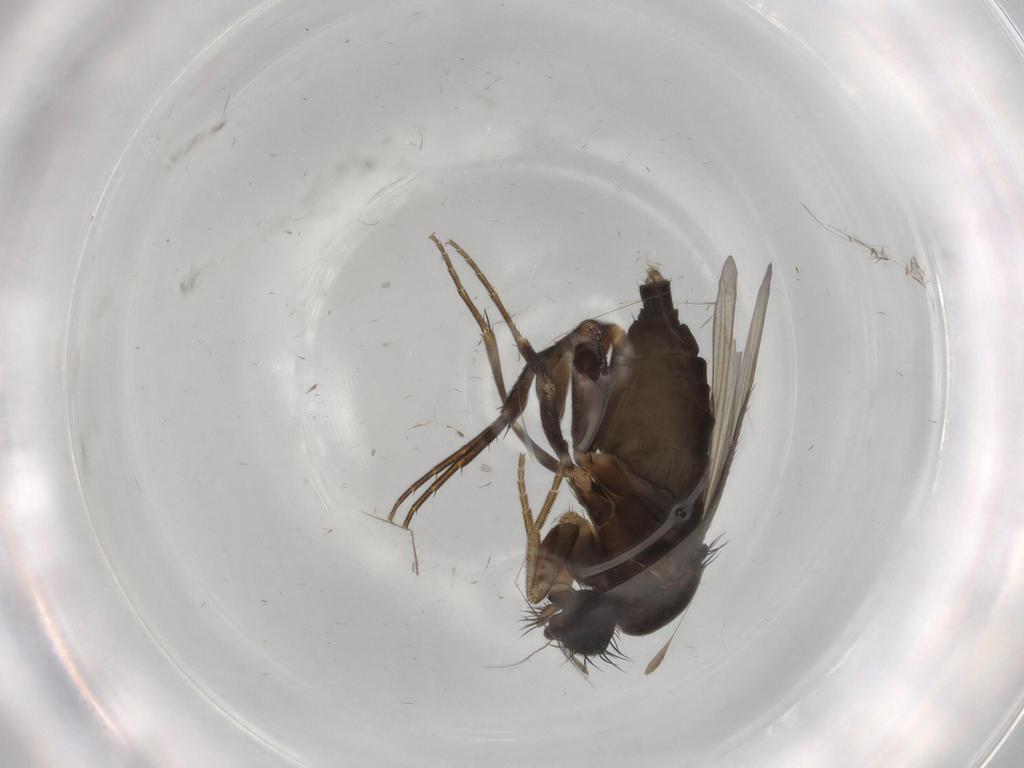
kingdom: Animalia
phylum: Arthropoda
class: Insecta
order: Diptera
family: Phoridae
